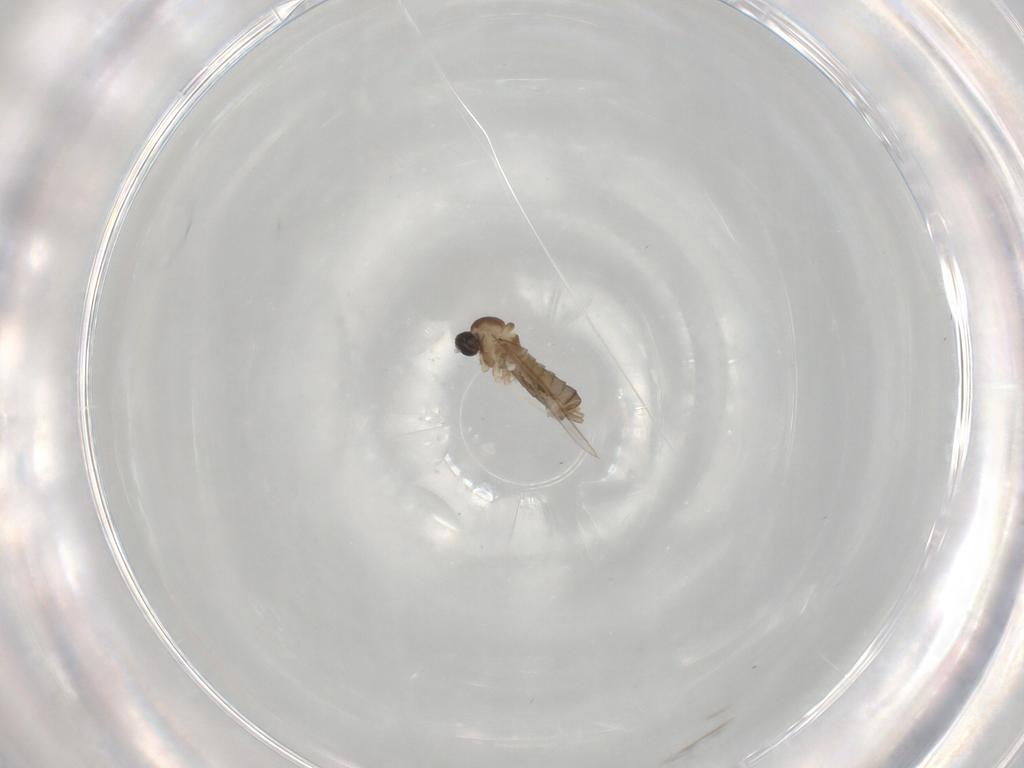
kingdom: Animalia
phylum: Arthropoda
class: Insecta
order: Diptera
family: Cecidomyiidae
